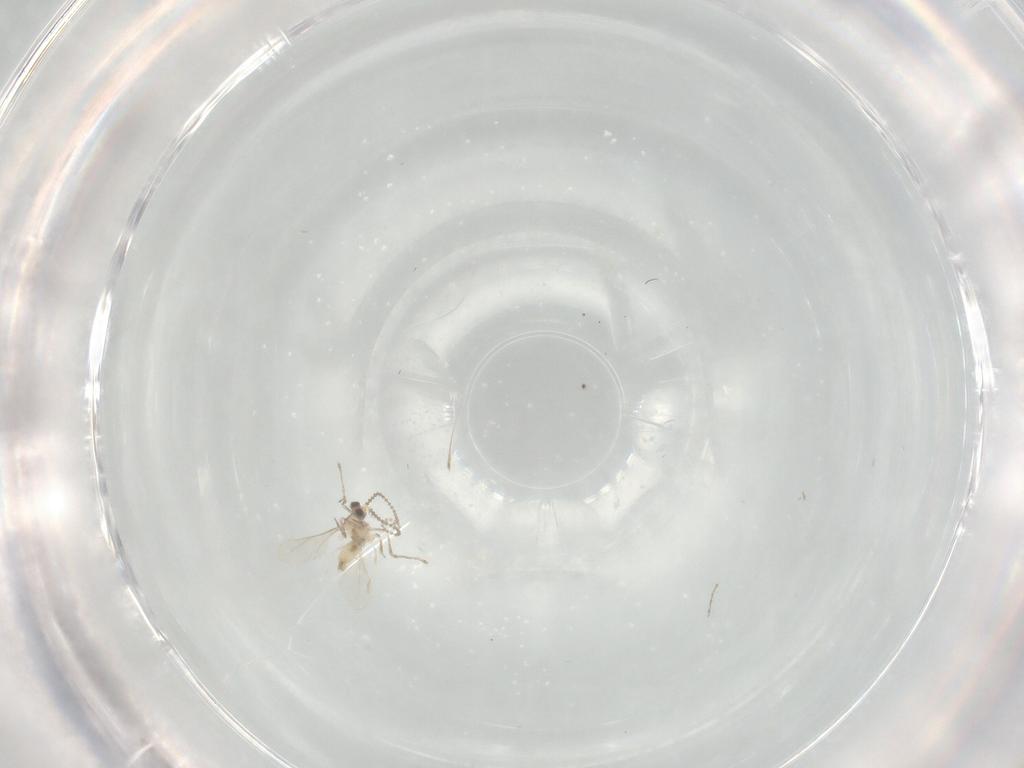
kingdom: Animalia
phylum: Arthropoda
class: Insecta
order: Diptera
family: Cecidomyiidae
